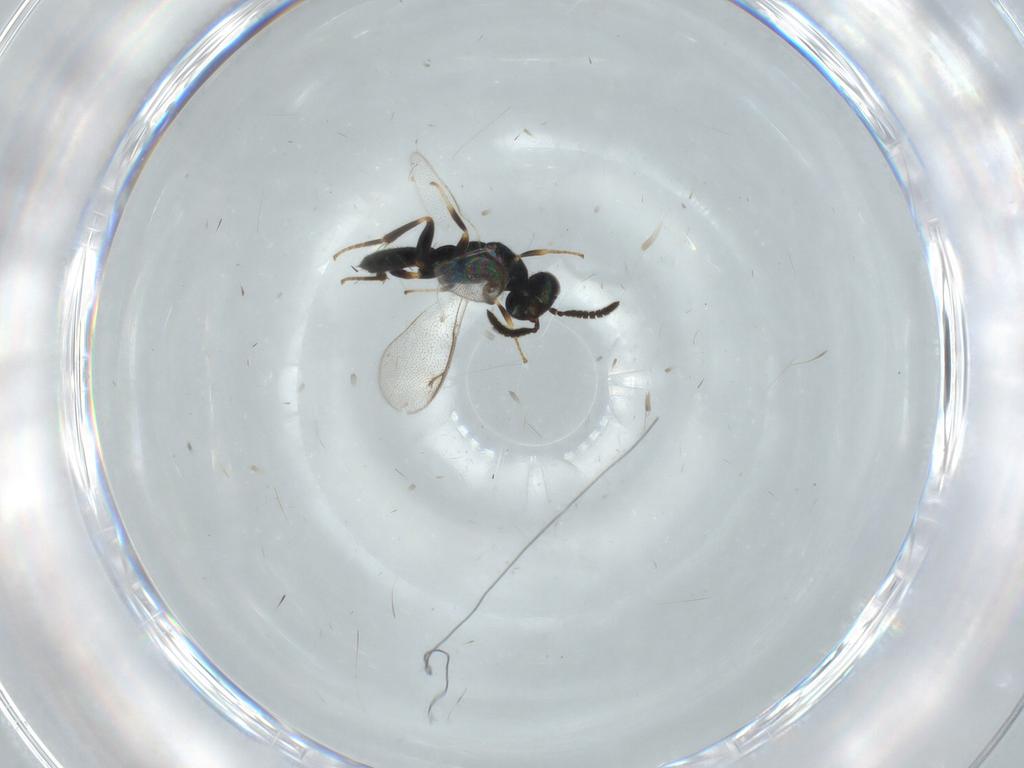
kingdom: Animalia
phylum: Arthropoda
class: Insecta
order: Hymenoptera
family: Cleonyminae
